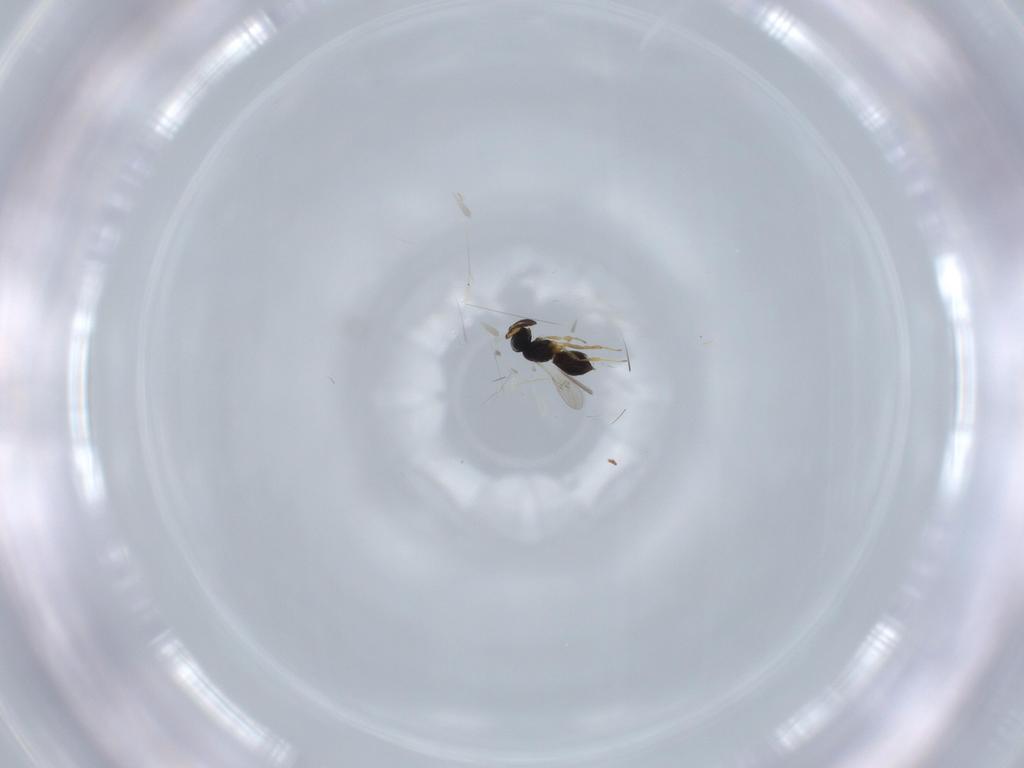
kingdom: Animalia
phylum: Arthropoda
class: Insecta
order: Hymenoptera
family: Scelionidae
